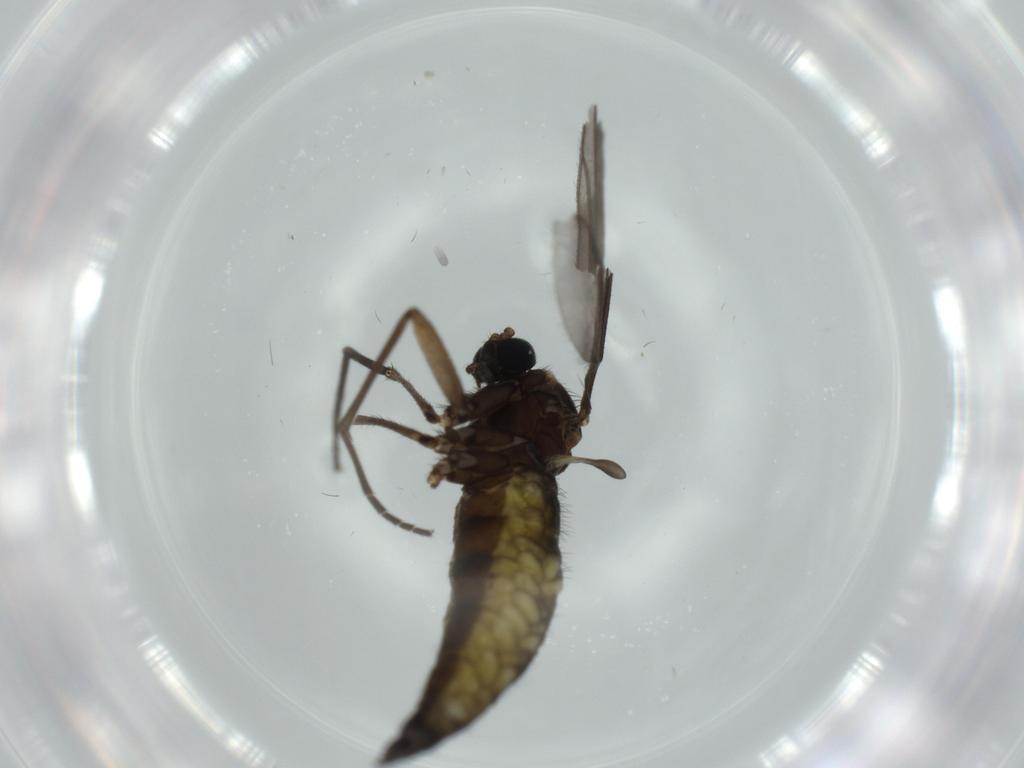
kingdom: Animalia
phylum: Arthropoda
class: Insecta
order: Diptera
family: Sciaridae
